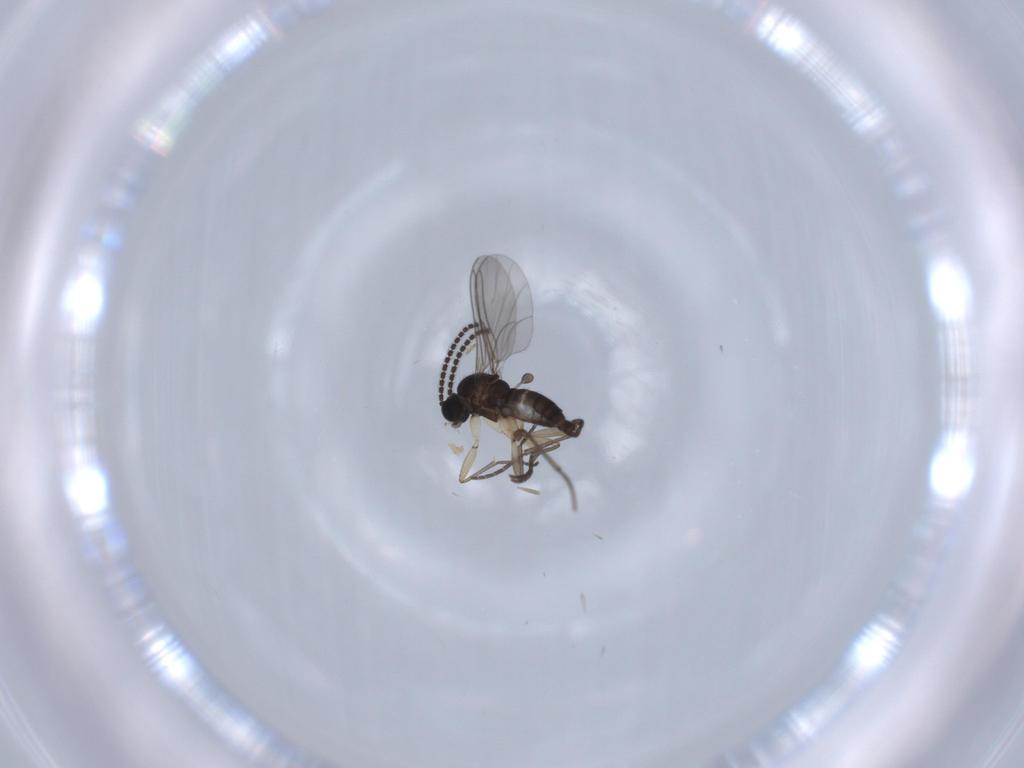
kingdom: Animalia
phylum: Arthropoda
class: Insecta
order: Diptera
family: Sciaridae
